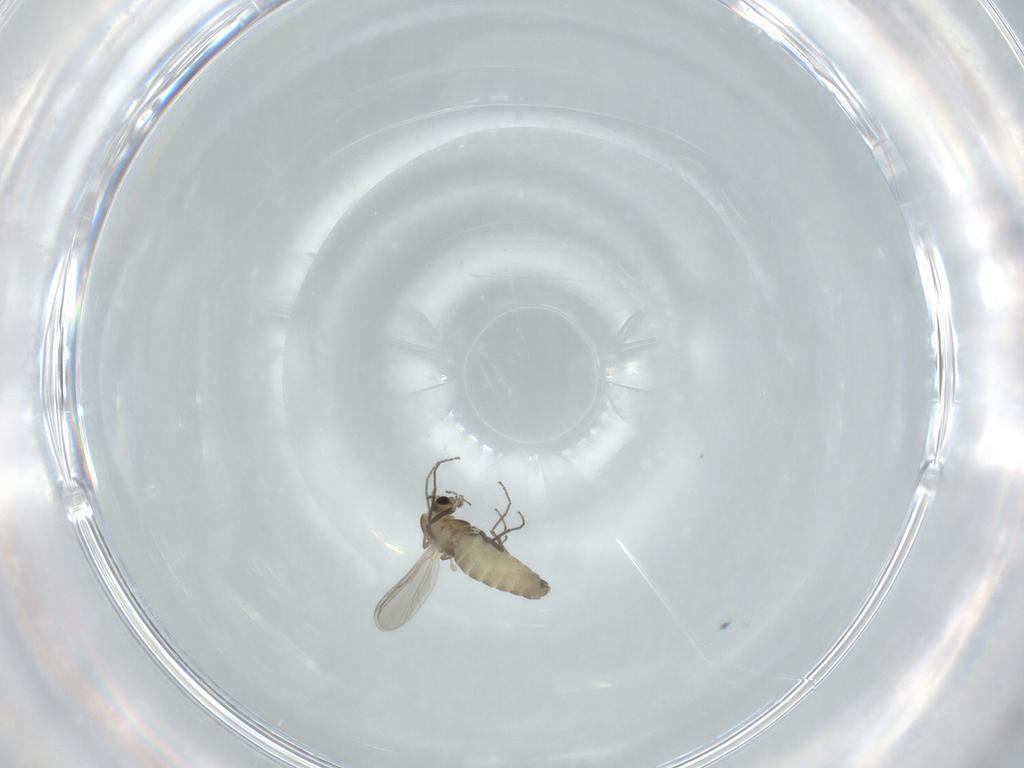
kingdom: Animalia
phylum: Arthropoda
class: Insecta
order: Diptera
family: Chironomidae
